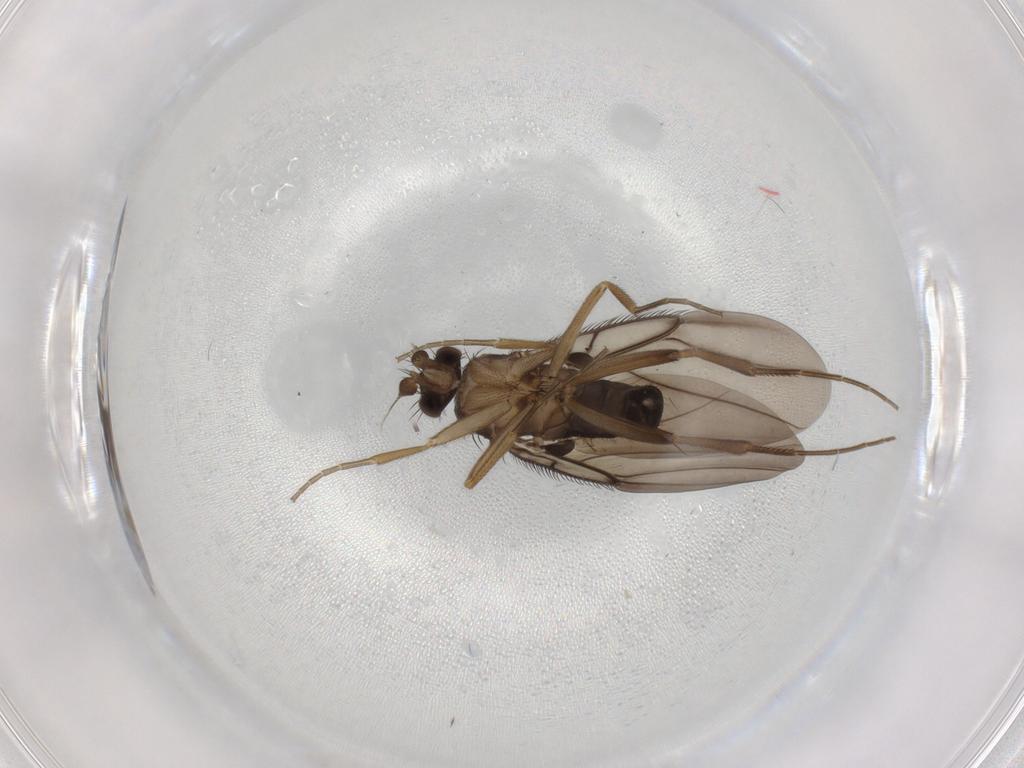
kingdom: Animalia
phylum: Arthropoda
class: Insecta
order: Diptera
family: Phoridae
